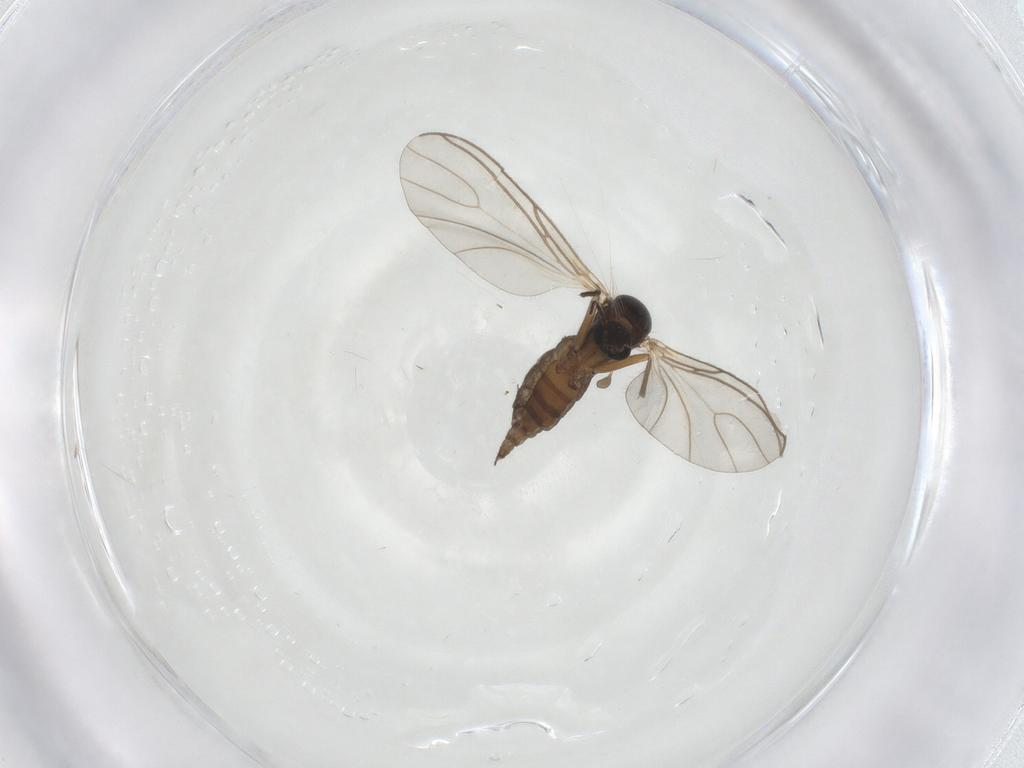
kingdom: Animalia
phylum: Arthropoda
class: Insecta
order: Diptera
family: Sciaridae
